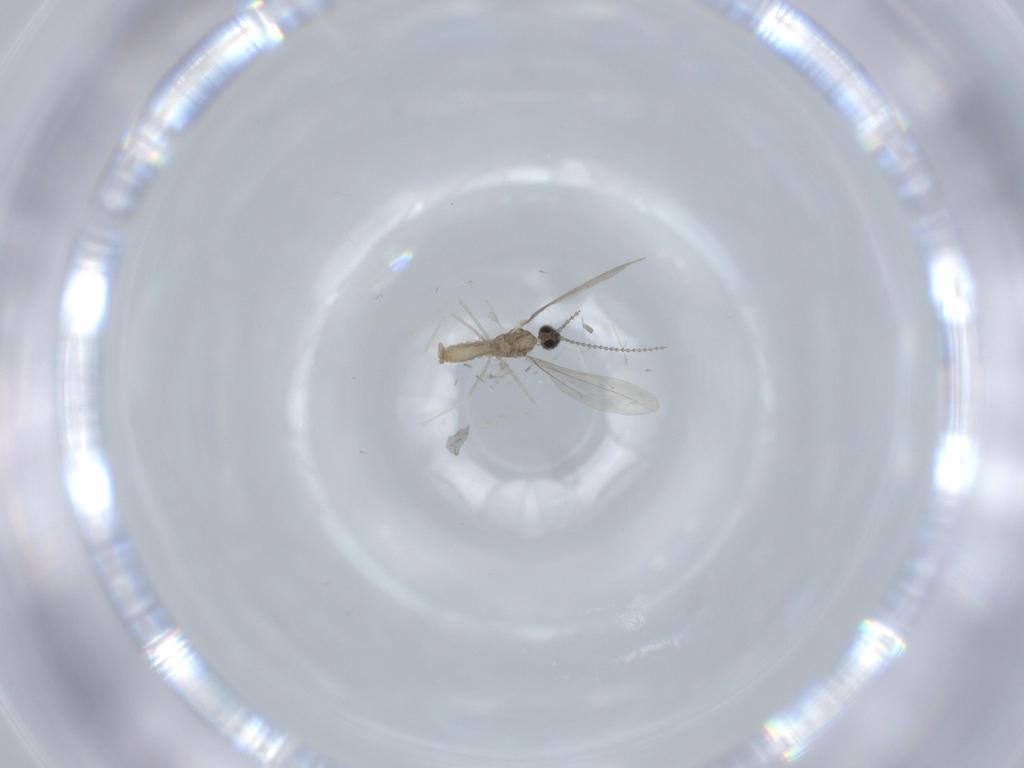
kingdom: Animalia
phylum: Arthropoda
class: Insecta
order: Diptera
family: Cecidomyiidae
